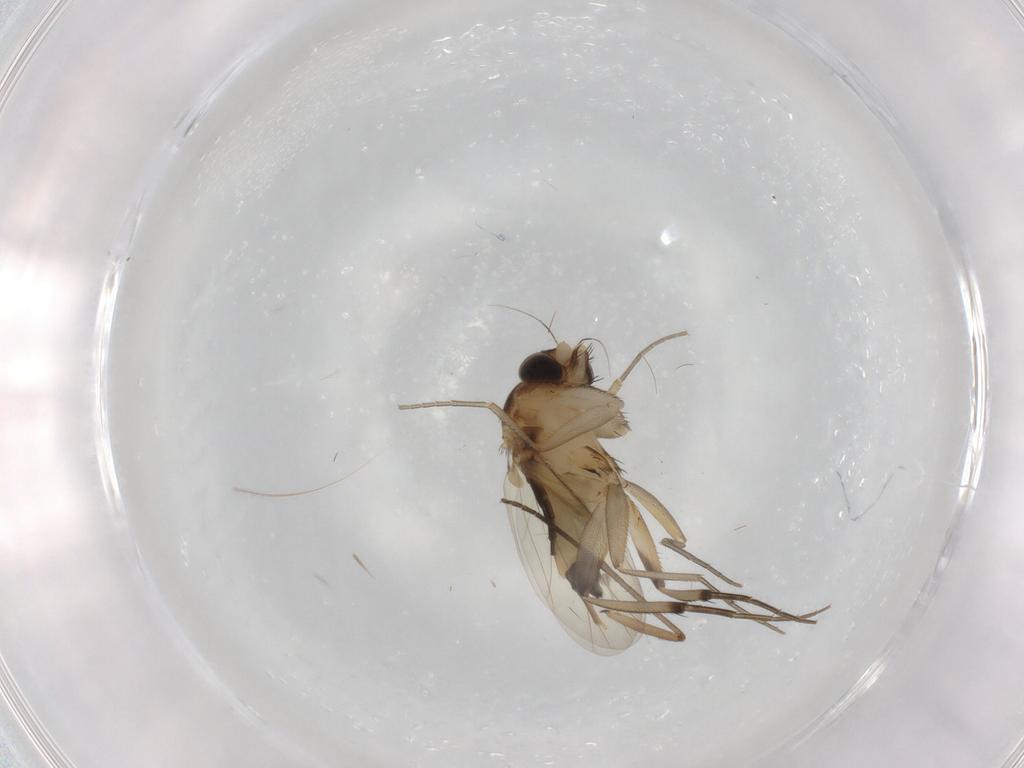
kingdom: Animalia
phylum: Arthropoda
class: Insecta
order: Diptera
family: Phoridae
